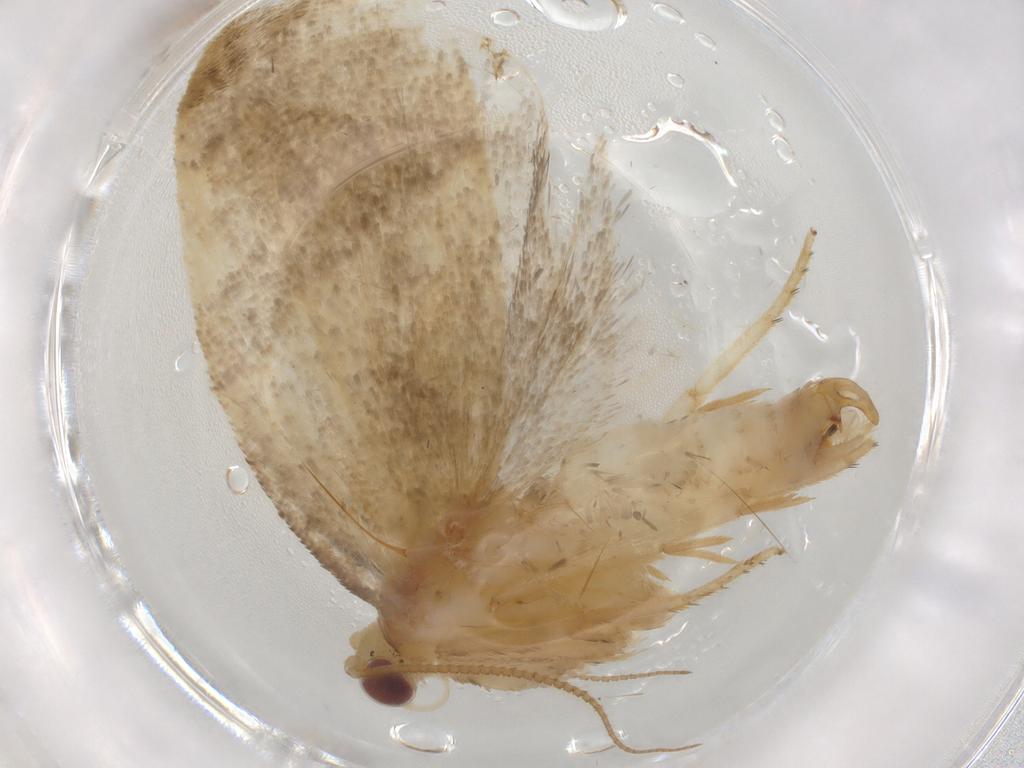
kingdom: Animalia
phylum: Arthropoda
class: Insecta
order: Lepidoptera
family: Tortricidae
